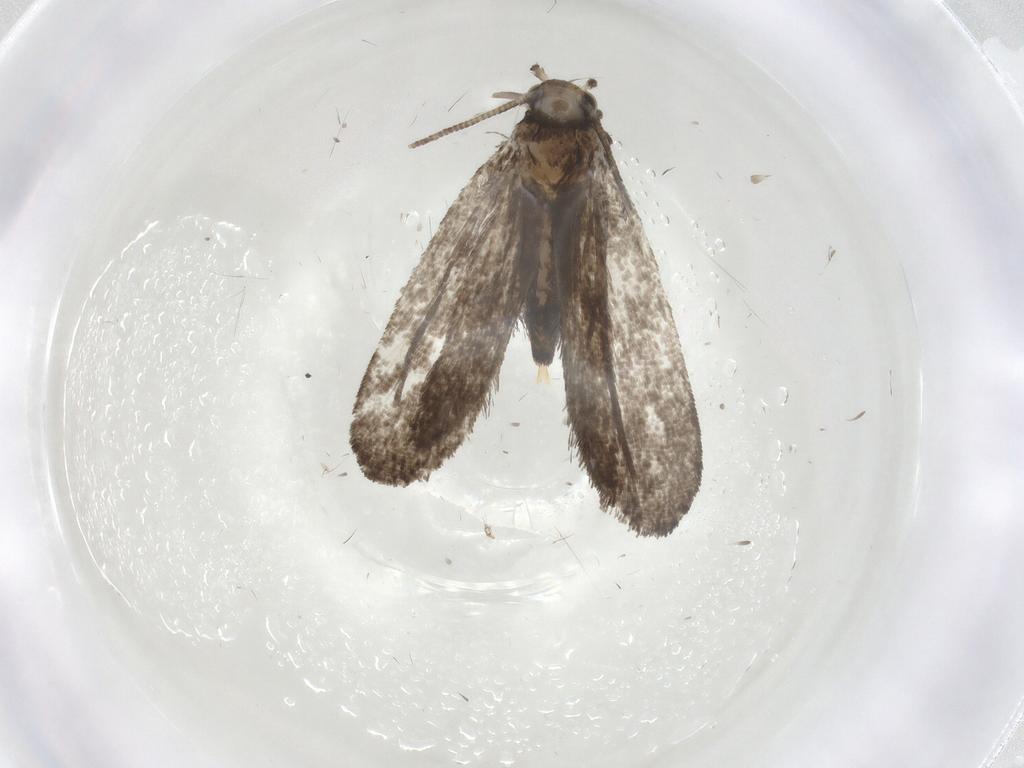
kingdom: Animalia
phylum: Arthropoda
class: Insecta
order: Lepidoptera
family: Nymphalidae
